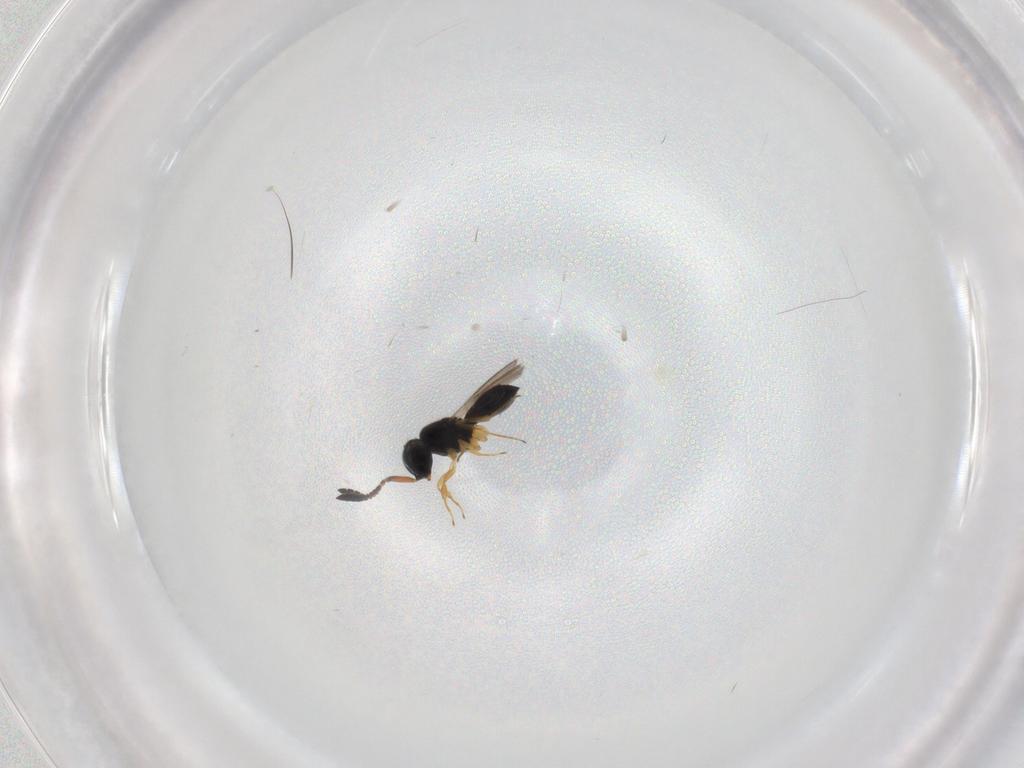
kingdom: Animalia
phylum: Arthropoda
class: Insecta
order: Hymenoptera
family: Scelionidae
